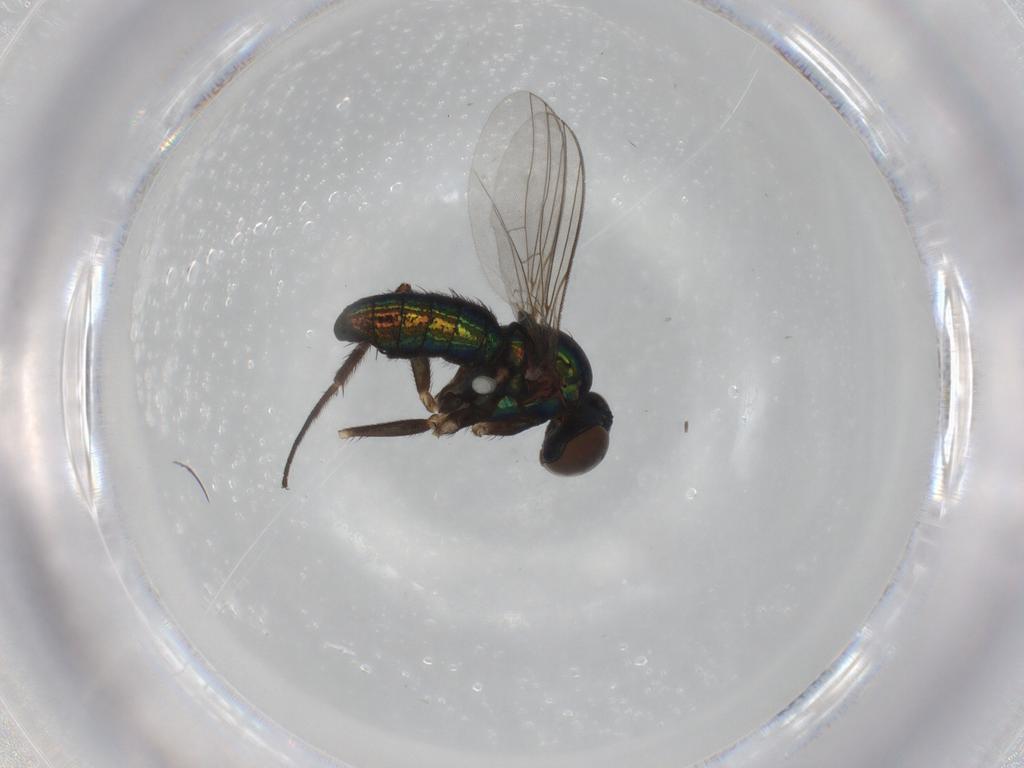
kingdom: Animalia
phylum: Arthropoda
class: Insecta
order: Diptera
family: Dolichopodidae
